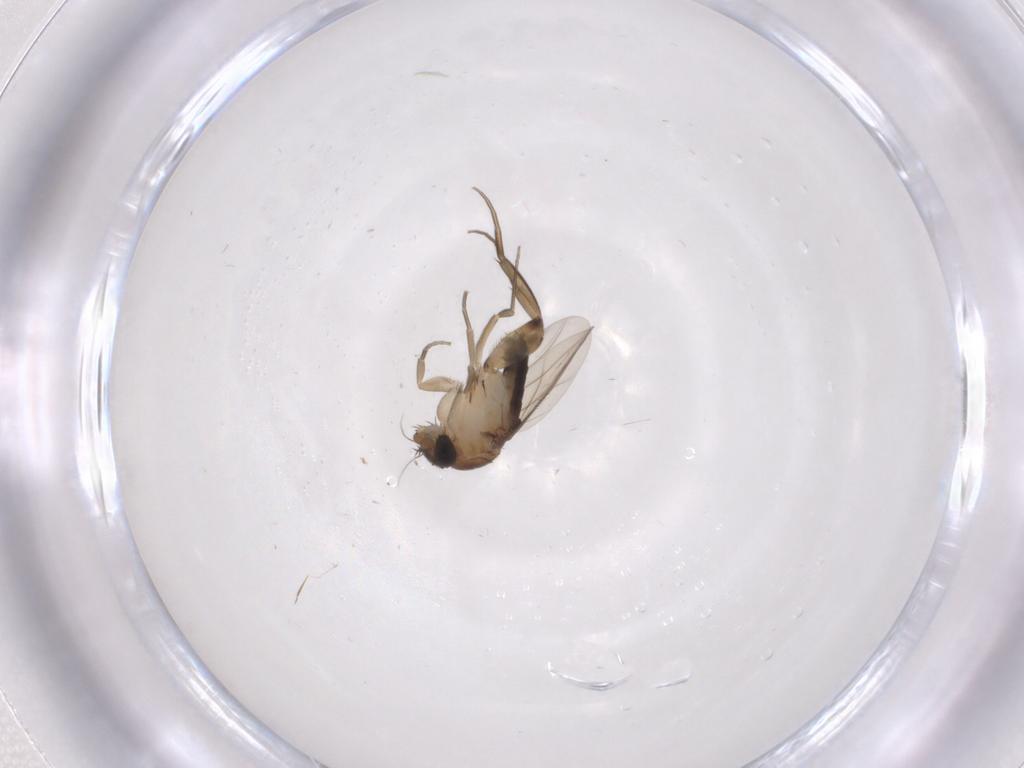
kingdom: Animalia
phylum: Arthropoda
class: Insecta
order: Diptera
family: Phoridae
